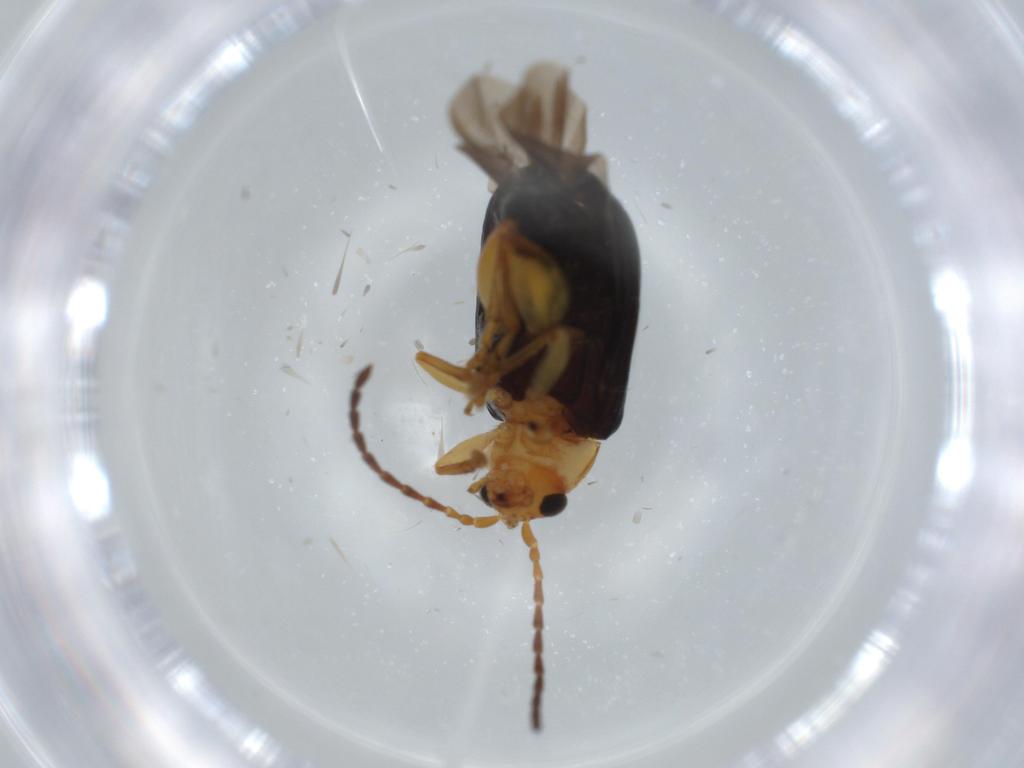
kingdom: Animalia
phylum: Arthropoda
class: Insecta
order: Coleoptera
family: Chrysomelidae
